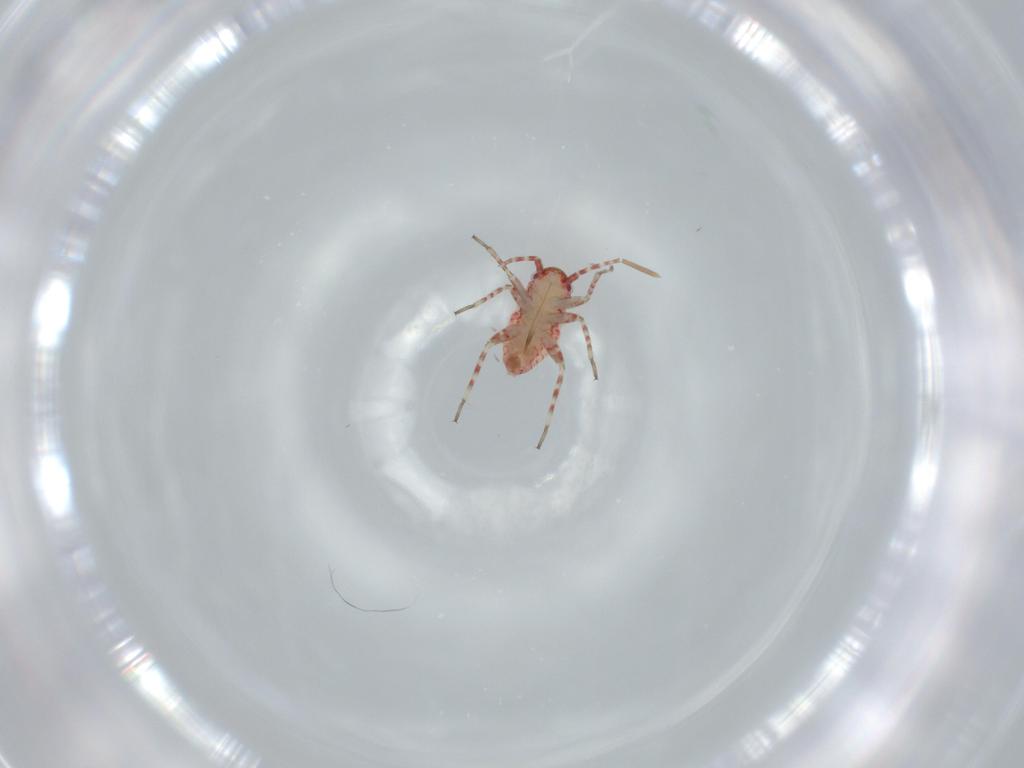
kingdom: Animalia
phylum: Arthropoda
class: Insecta
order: Hemiptera
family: Miridae
